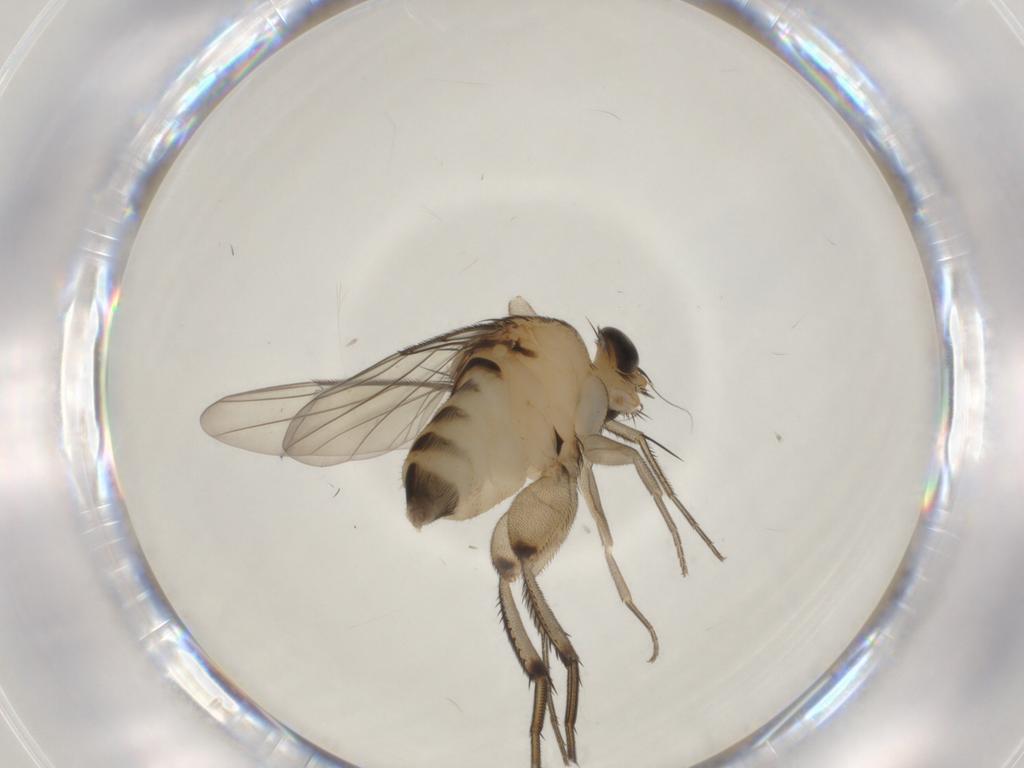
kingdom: Animalia
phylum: Arthropoda
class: Insecta
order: Diptera
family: Phoridae
